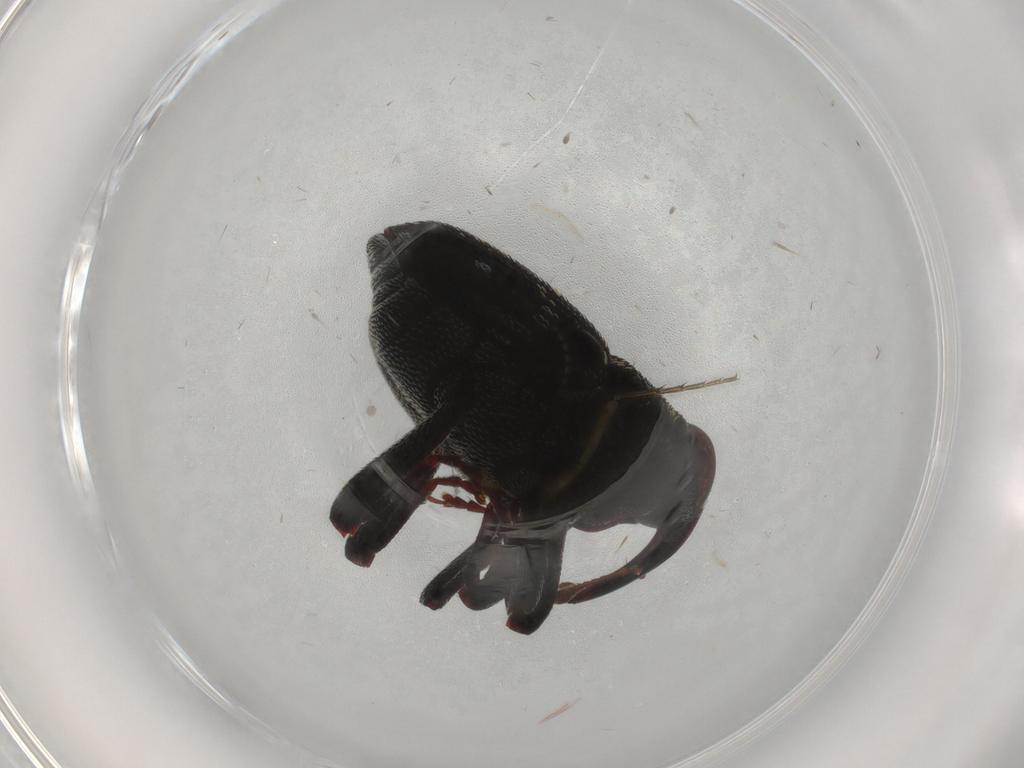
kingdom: Animalia
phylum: Arthropoda
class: Insecta
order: Coleoptera
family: Curculionidae
